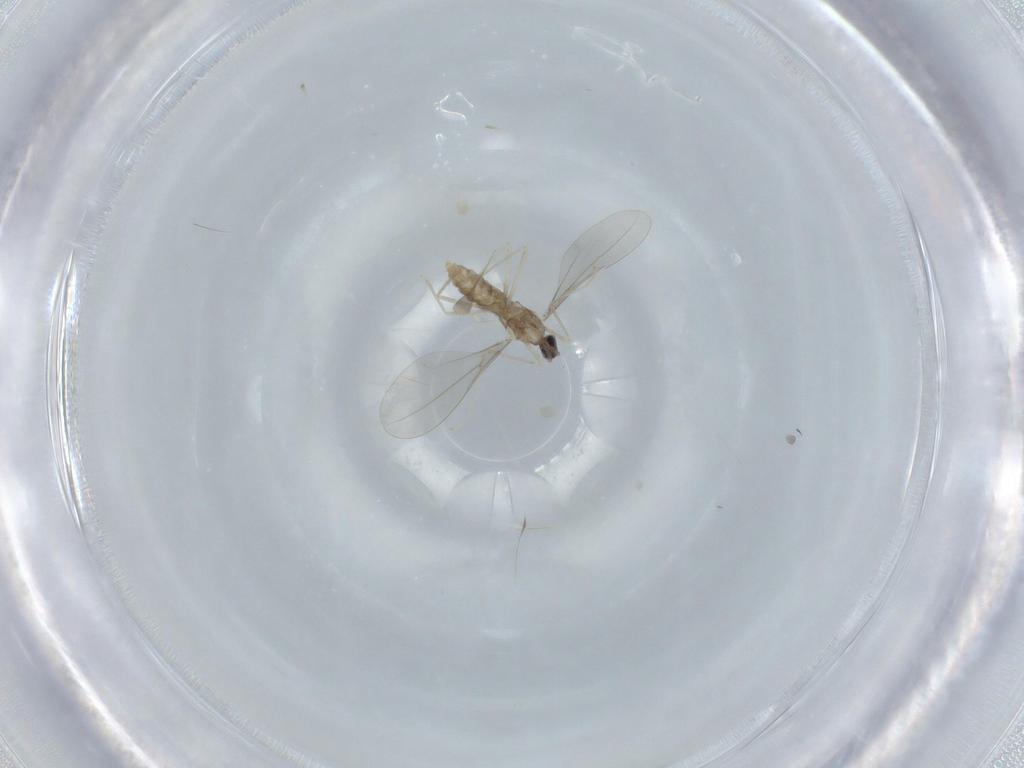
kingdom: Animalia
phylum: Arthropoda
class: Insecta
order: Diptera
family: Cecidomyiidae
